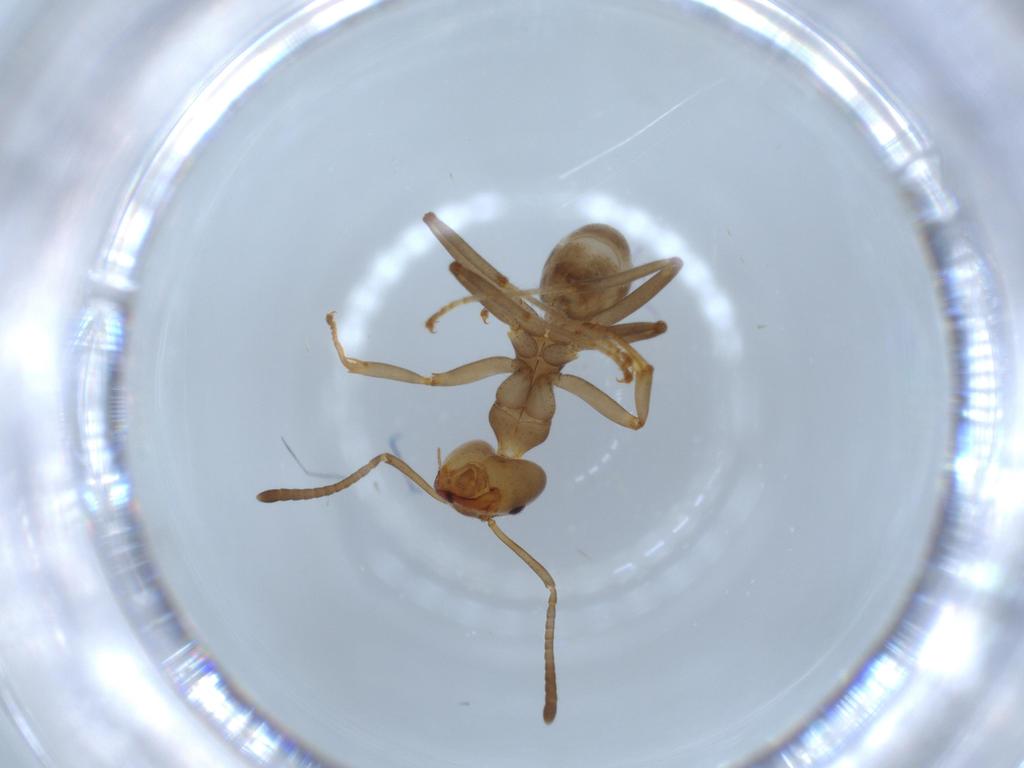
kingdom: Animalia
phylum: Arthropoda
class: Insecta
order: Hymenoptera
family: Formicidae
